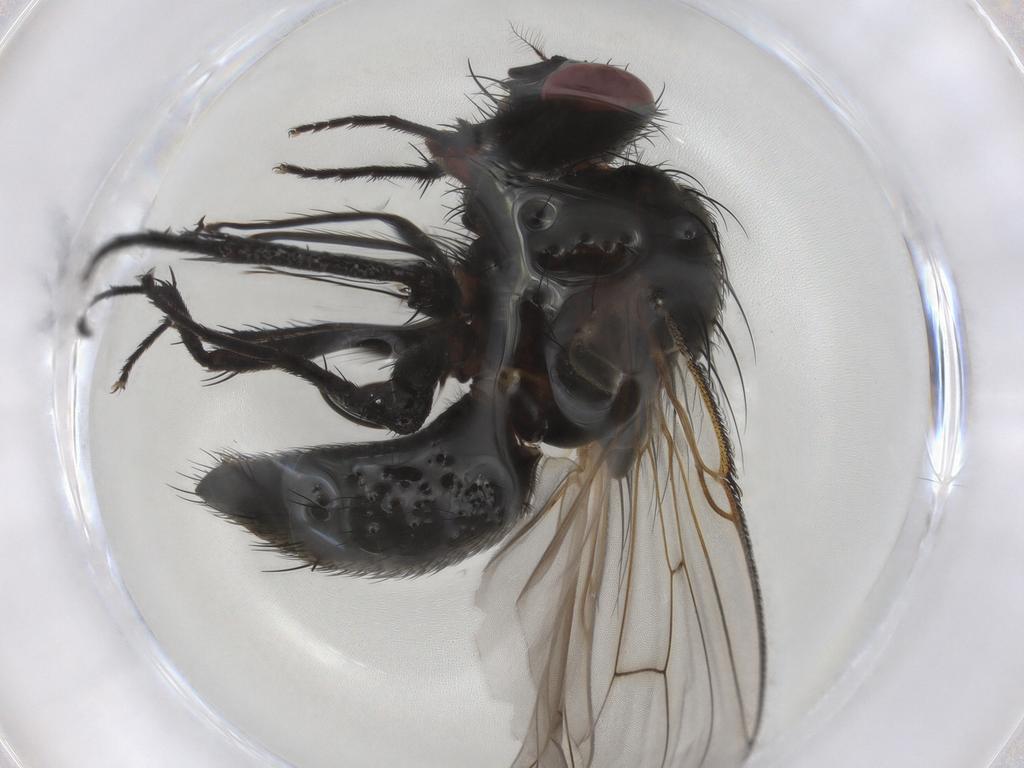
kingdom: Animalia
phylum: Arthropoda
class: Insecta
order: Diptera
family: Muscidae
